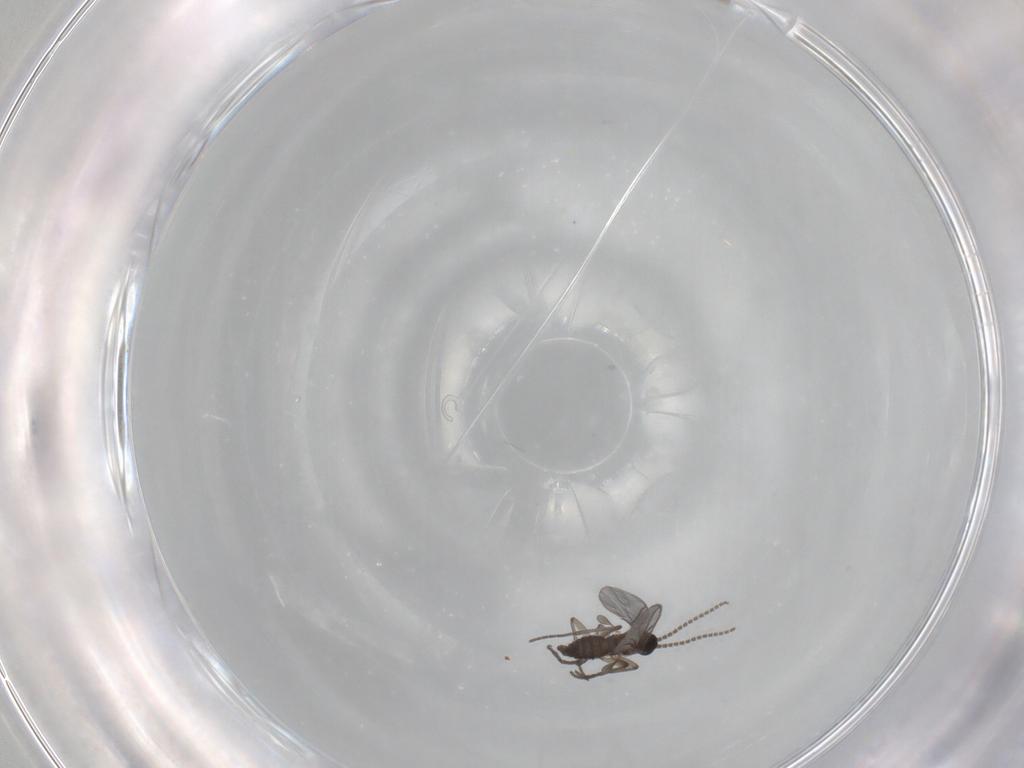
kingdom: Animalia
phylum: Arthropoda
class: Insecta
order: Diptera
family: Sciaridae
